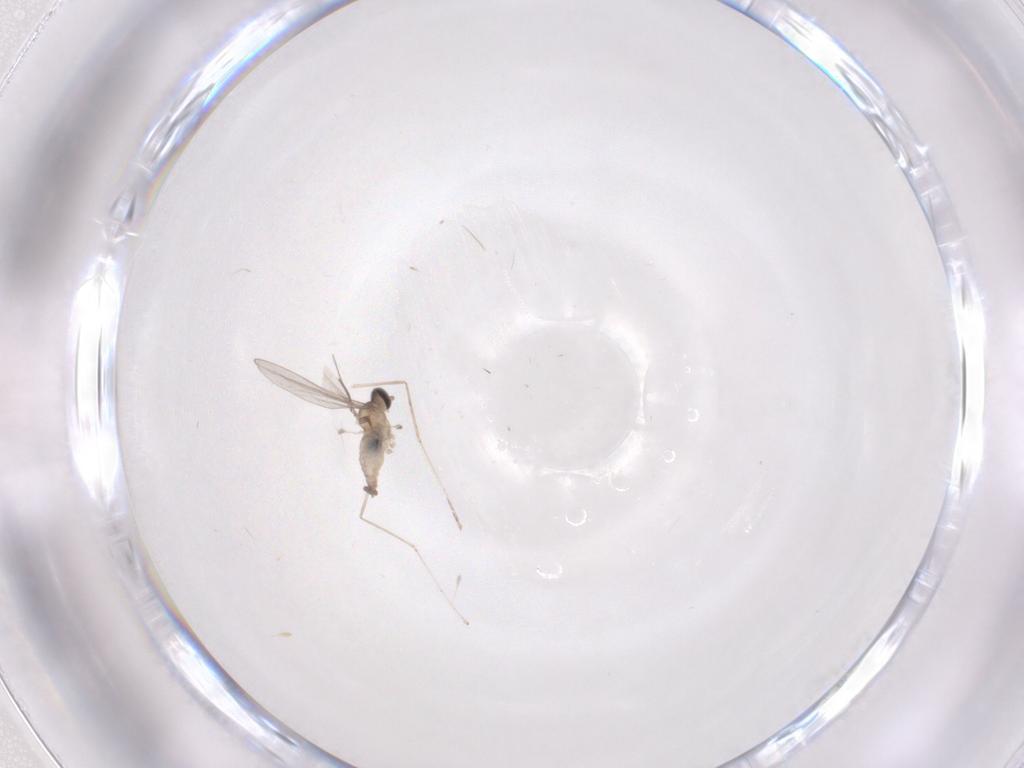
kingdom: Animalia
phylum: Arthropoda
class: Insecta
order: Diptera
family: Cecidomyiidae
